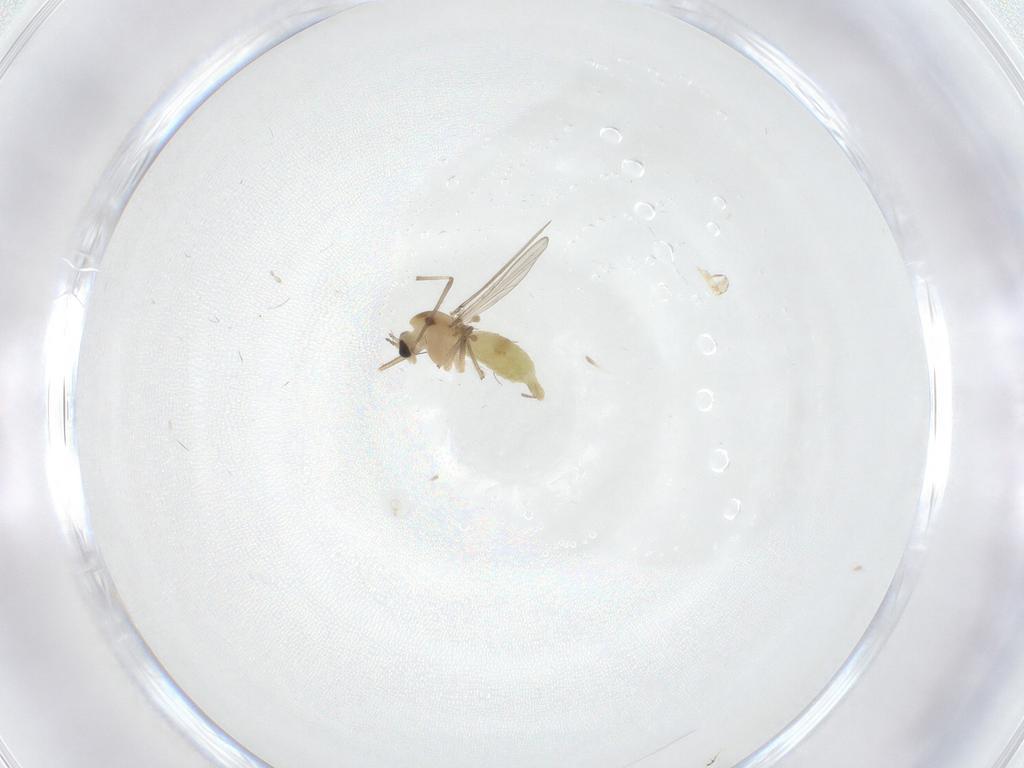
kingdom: Animalia
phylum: Arthropoda
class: Insecta
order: Diptera
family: Chironomidae
